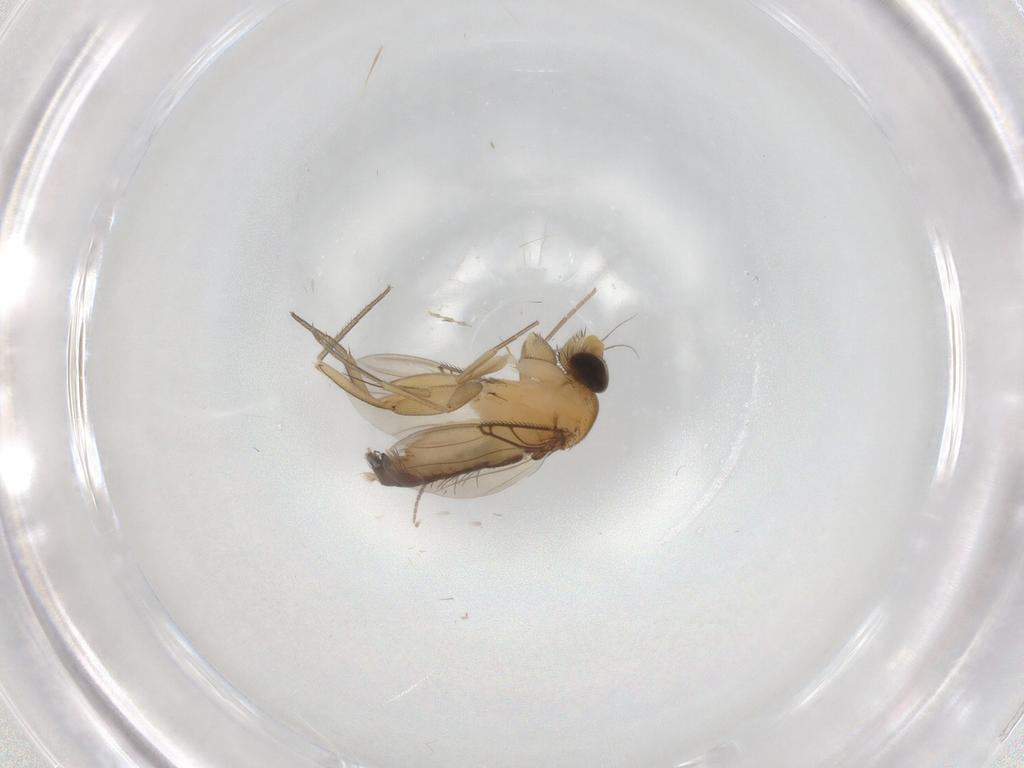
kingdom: Animalia
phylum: Arthropoda
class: Insecta
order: Diptera
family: Phoridae
